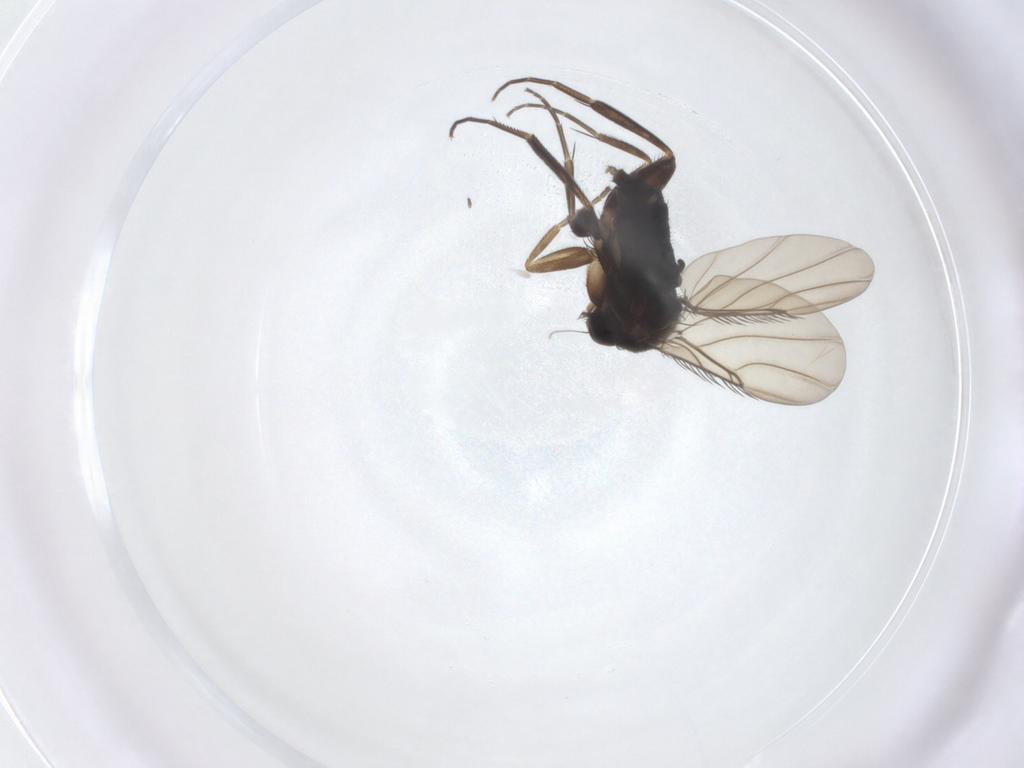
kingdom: Animalia
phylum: Arthropoda
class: Insecta
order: Diptera
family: Phoridae
